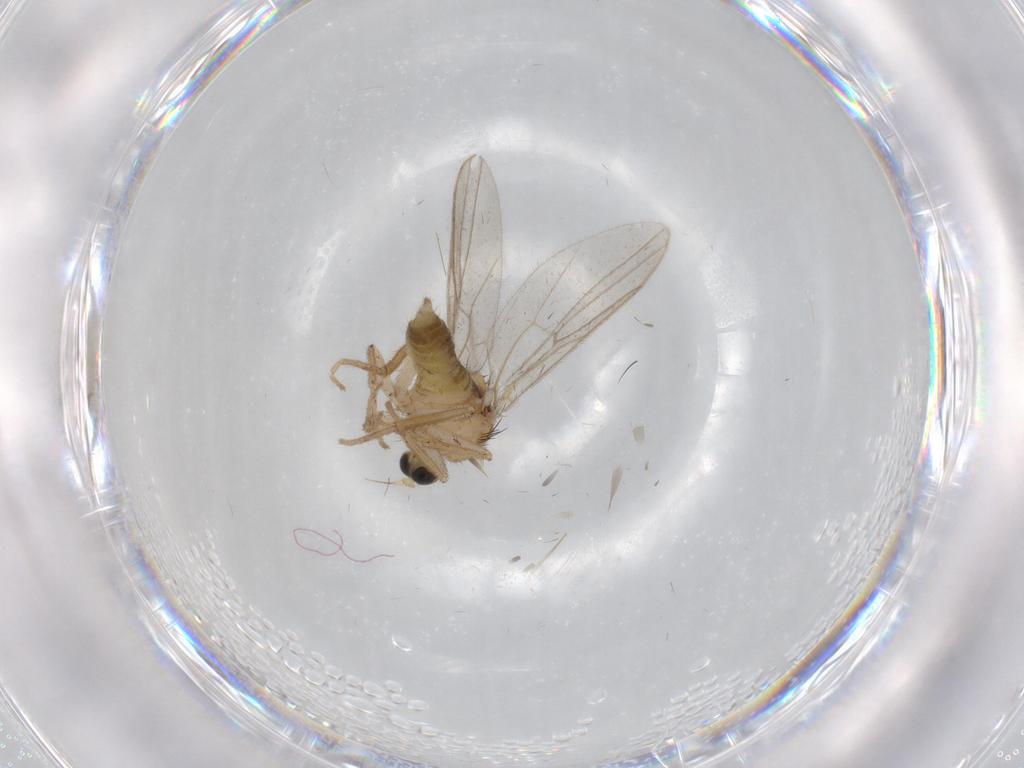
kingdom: Animalia
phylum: Arthropoda
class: Insecta
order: Diptera
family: Hybotidae
